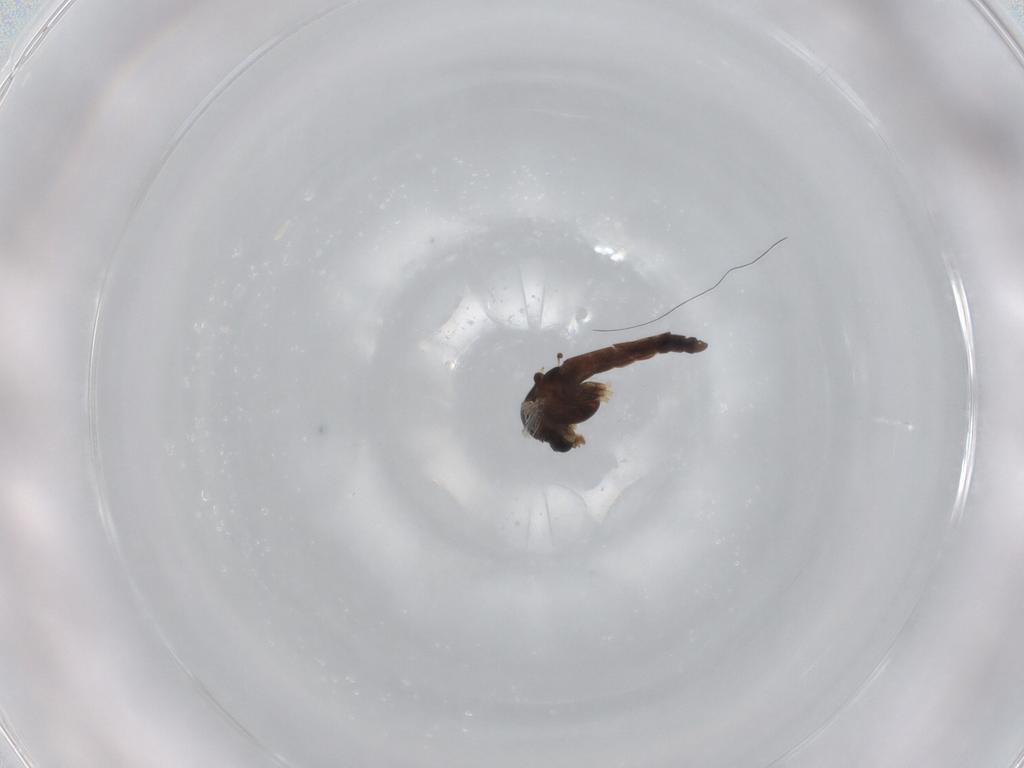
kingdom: Animalia
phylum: Arthropoda
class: Insecta
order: Diptera
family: Chironomidae
